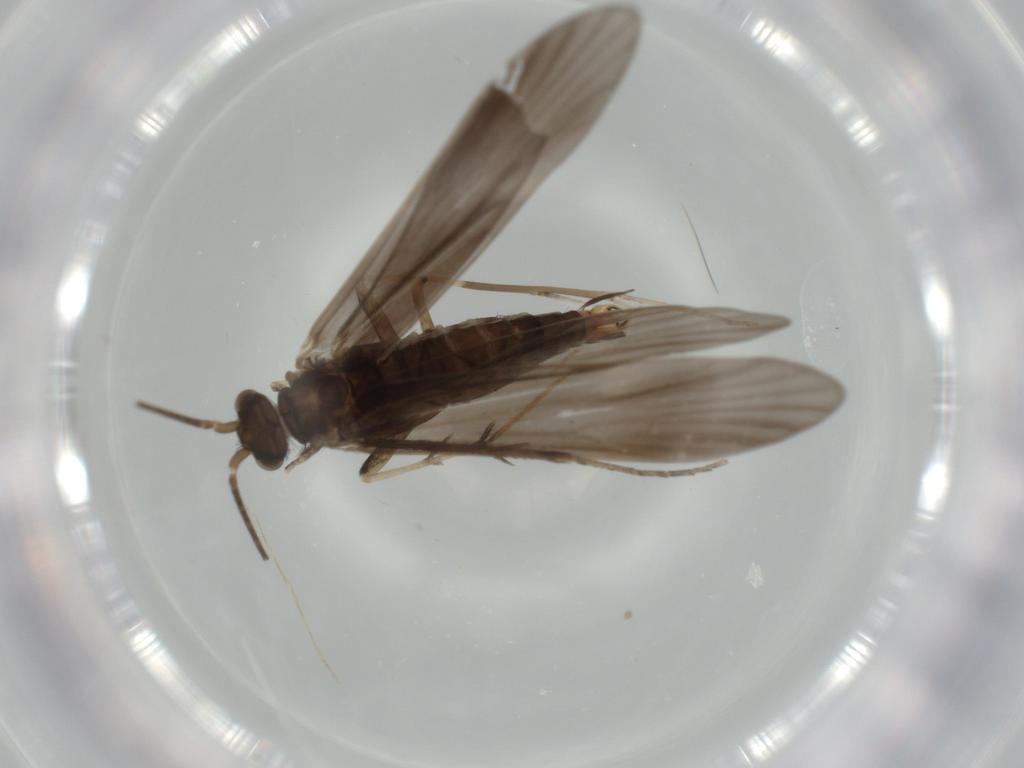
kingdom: Animalia
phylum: Arthropoda
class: Insecta
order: Trichoptera
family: Xiphocentronidae
